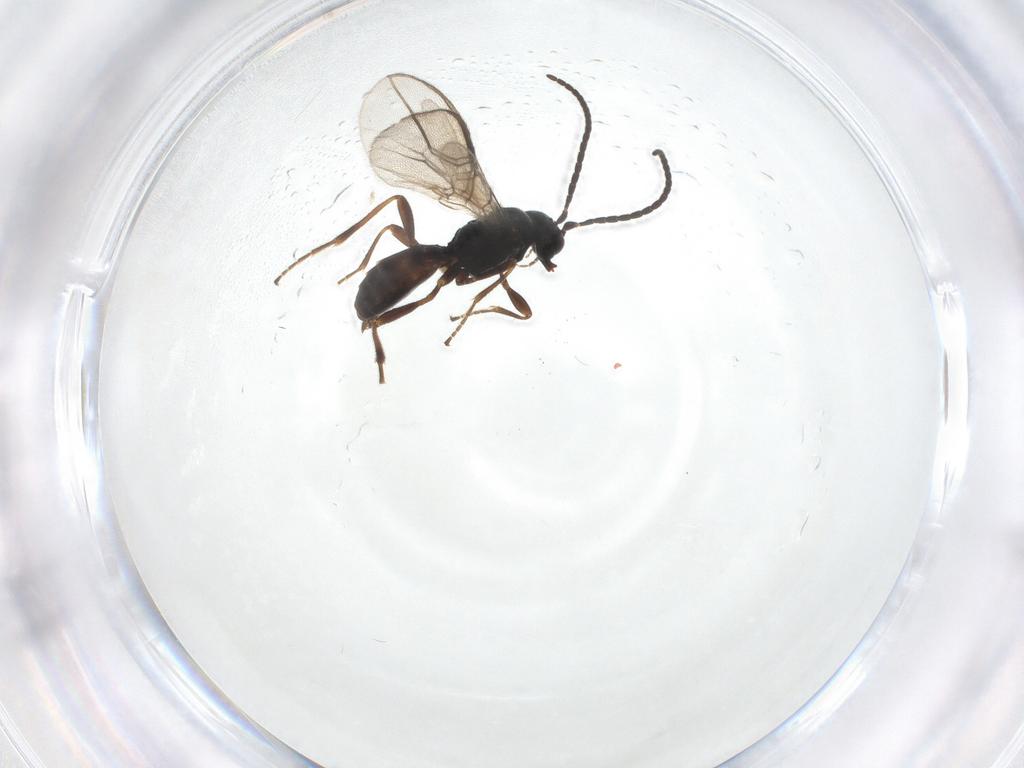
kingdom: Animalia
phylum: Arthropoda
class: Insecta
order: Hymenoptera
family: Braconidae
